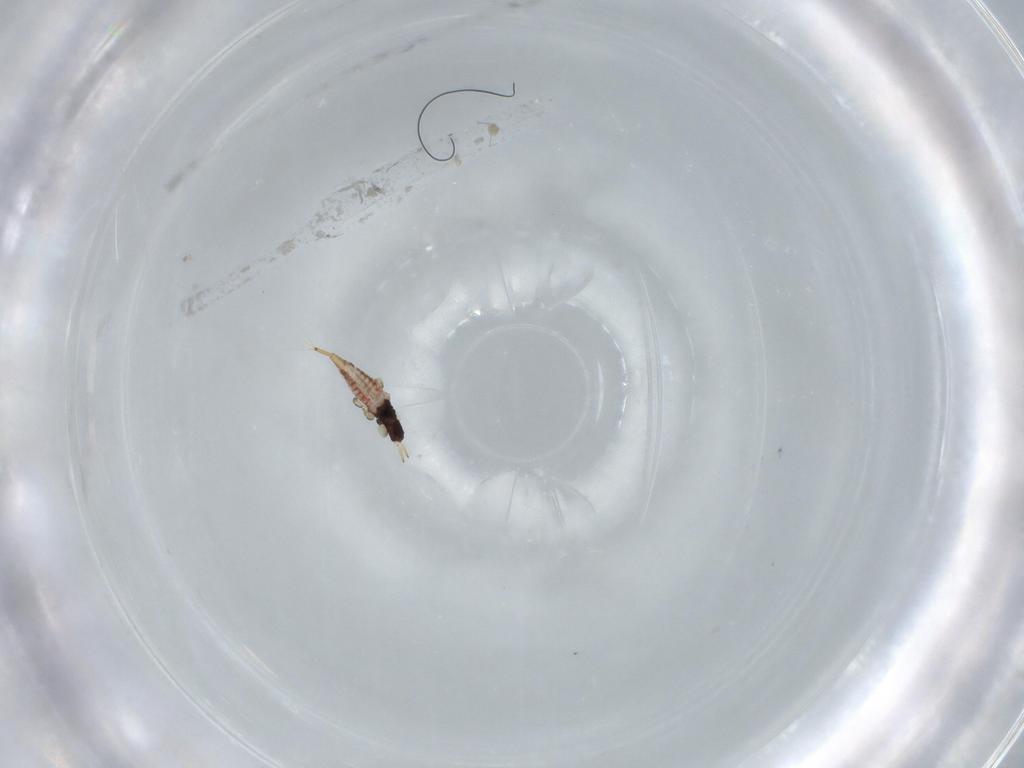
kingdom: Animalia
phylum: Arthropoda
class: Insecta
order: Thysanoptera
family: Phlaeothripidae
